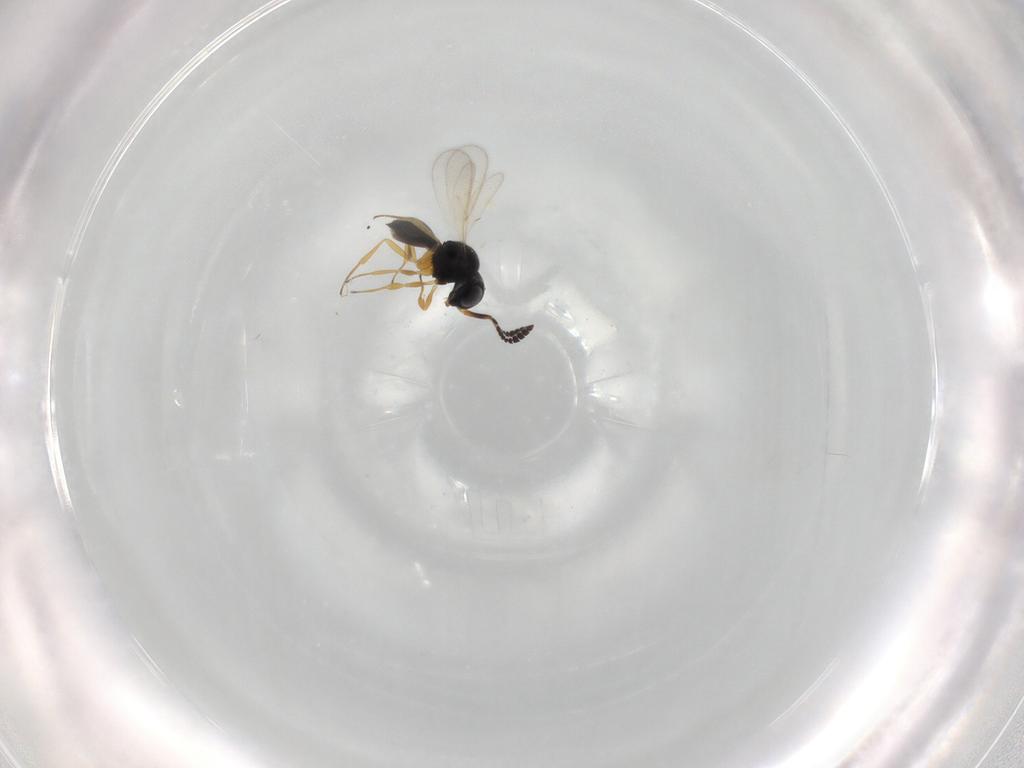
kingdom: Animalia
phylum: Arthropoda
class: Insecta
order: Hymenoptera
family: Scelionidae
